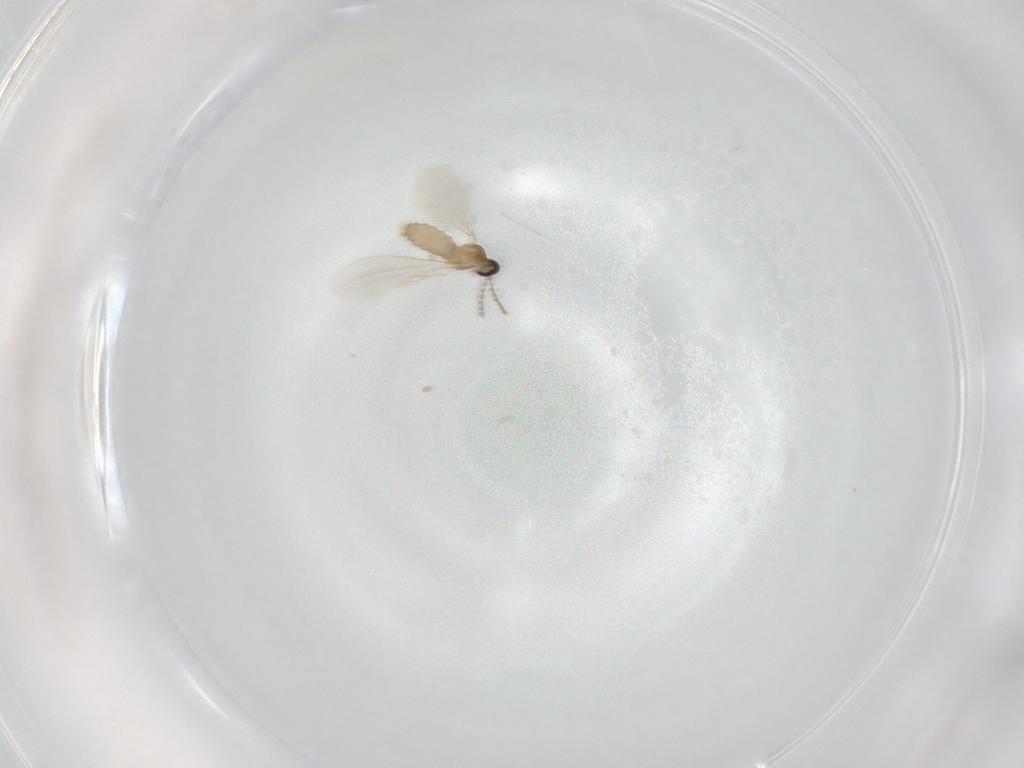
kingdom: Animalia
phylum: Arthropoda
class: Insecta
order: Diptera
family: Cecidomyiidae
